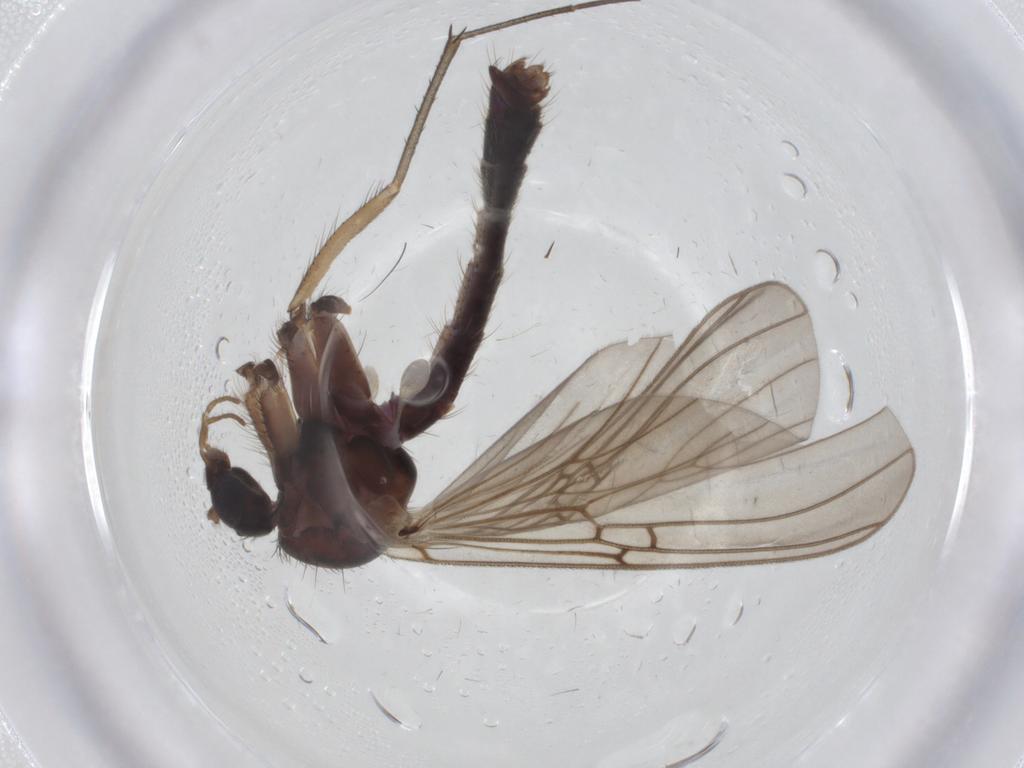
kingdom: Animalia
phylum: Arthropoda
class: Insecta
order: Diptera
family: Mycetophilidae
